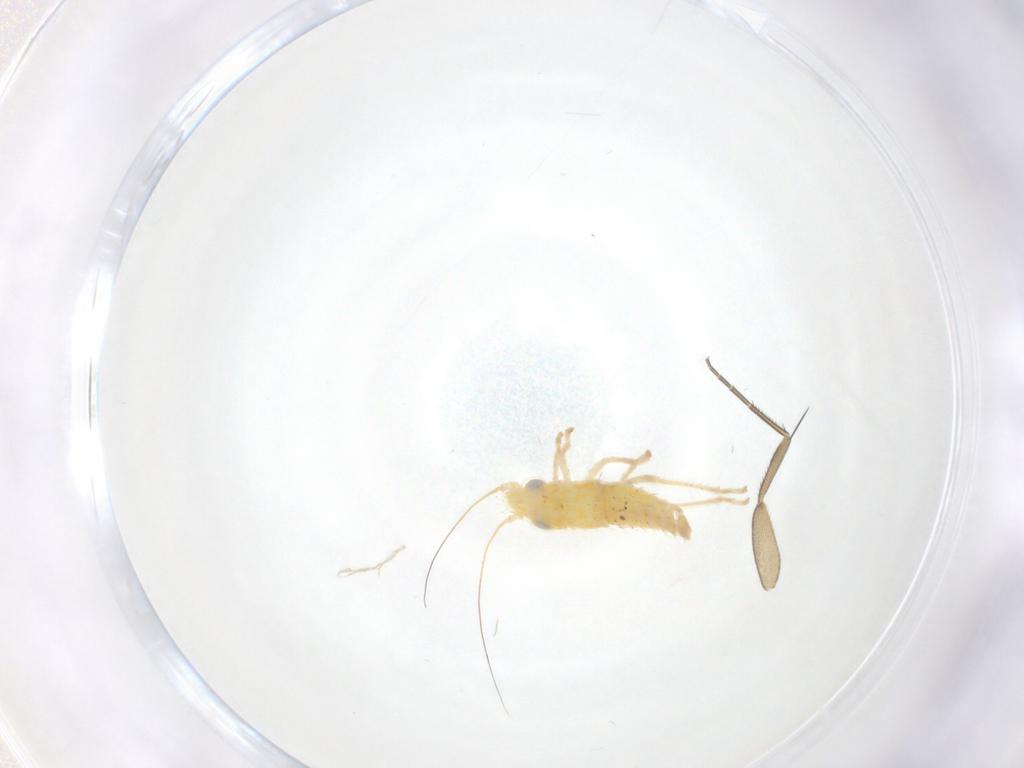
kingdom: Animalia
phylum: Arthropoda
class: Insecta
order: Hemiptera
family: Cicadellidae
